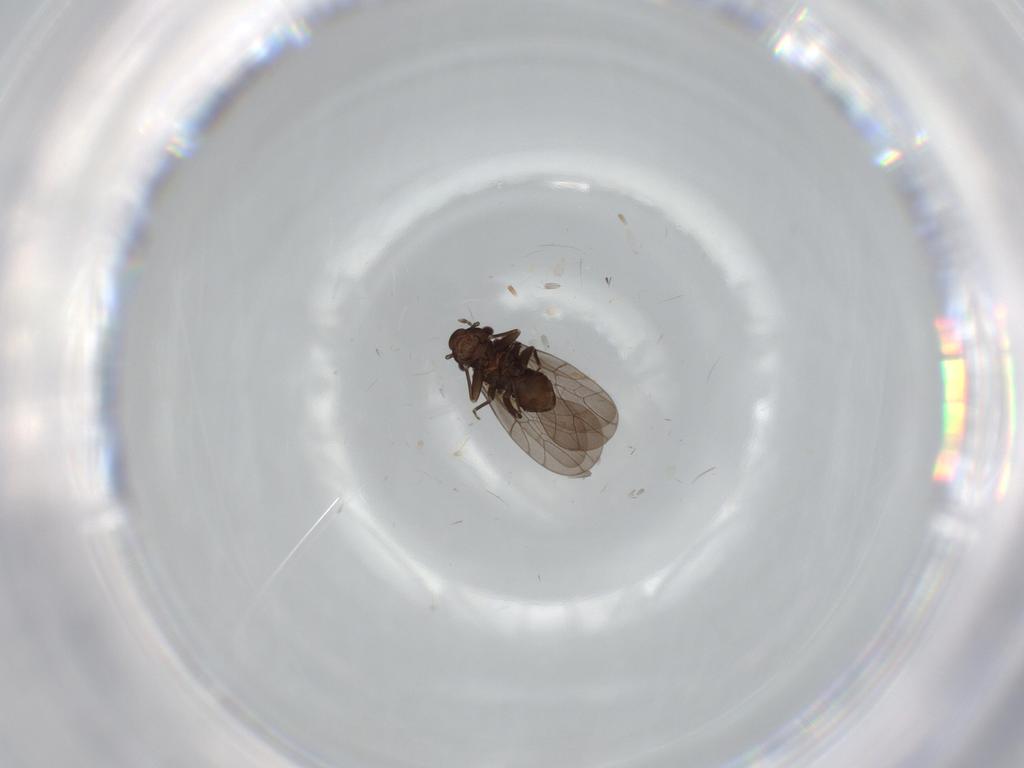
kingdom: Animalia
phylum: Arthropoda
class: Insecta
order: Psocodea
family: Lepidopsocidae
